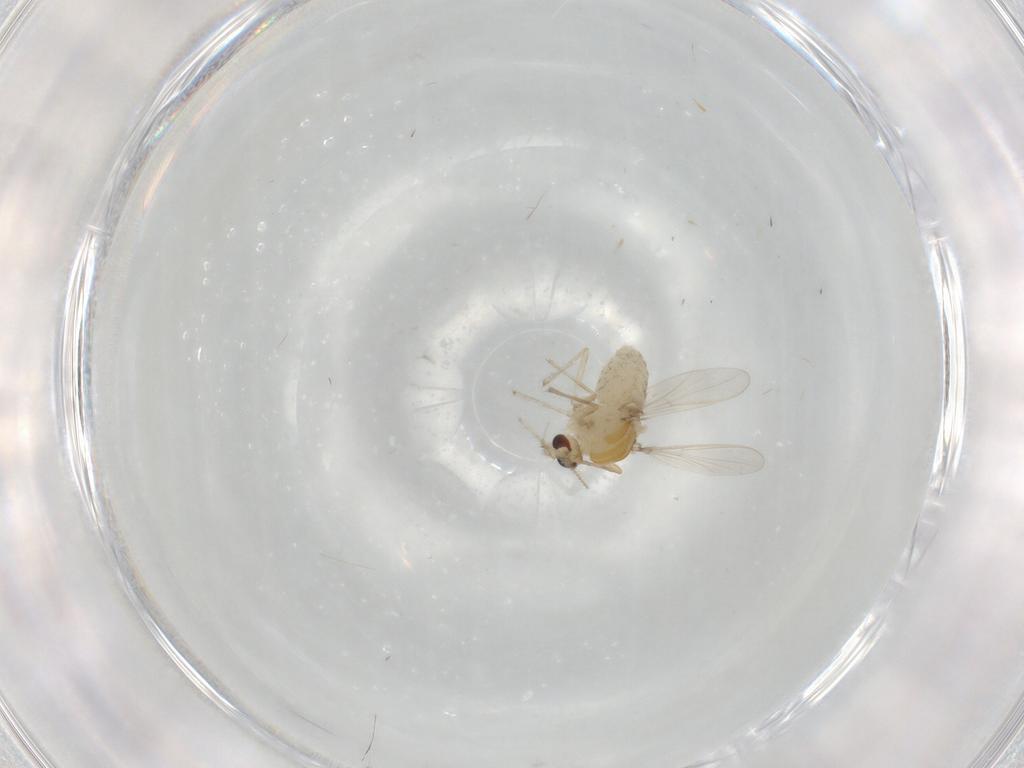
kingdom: Animalia
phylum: Arthropoda
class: Insecta
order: Diptera
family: Chironomidae
